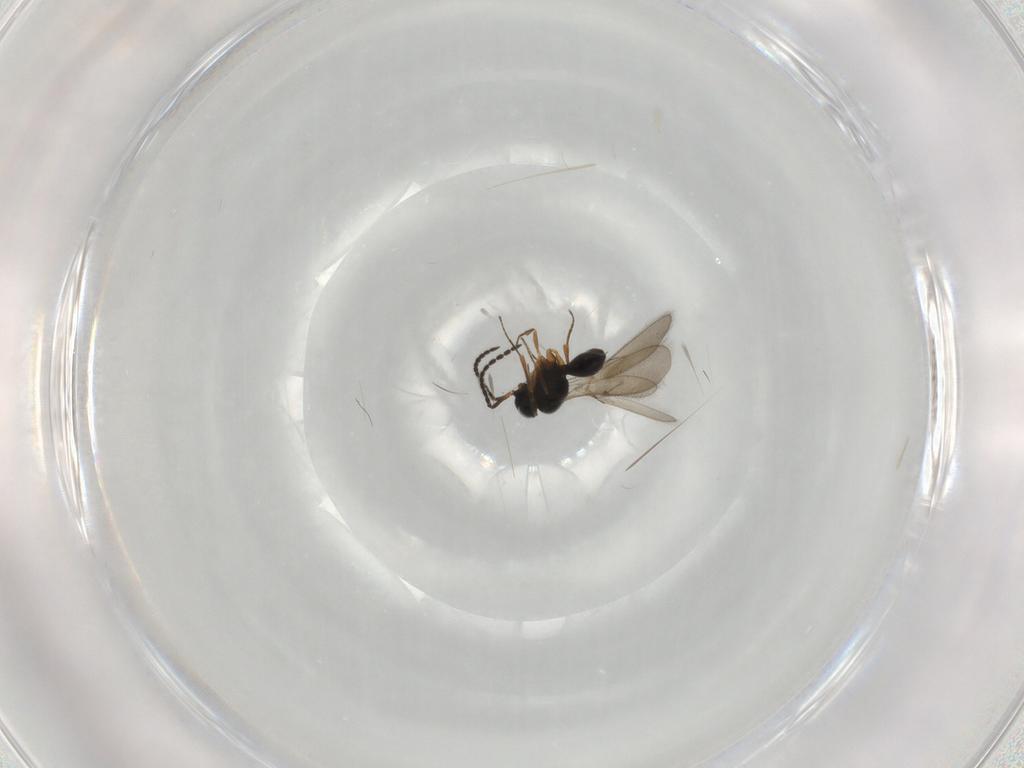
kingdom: Animalia
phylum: Arthropoda
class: Insecta
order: Hymenoptera
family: Scelionidae
